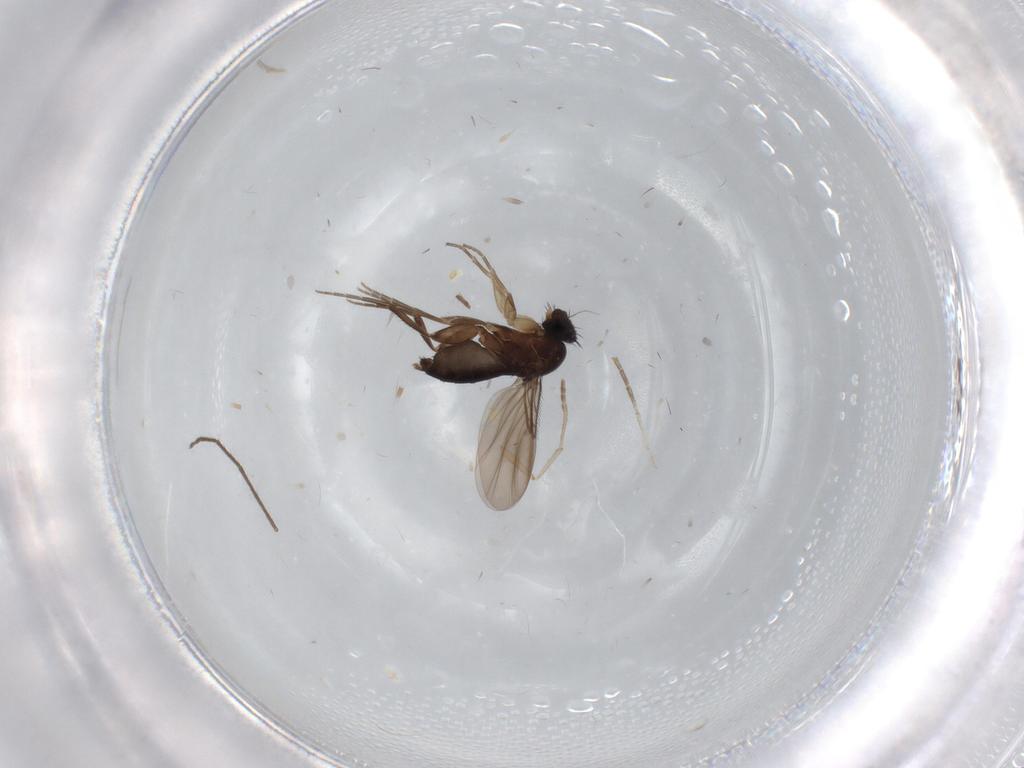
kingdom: Animalia
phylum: Arthropoda
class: Insecta
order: Diptera
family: Phoridae
